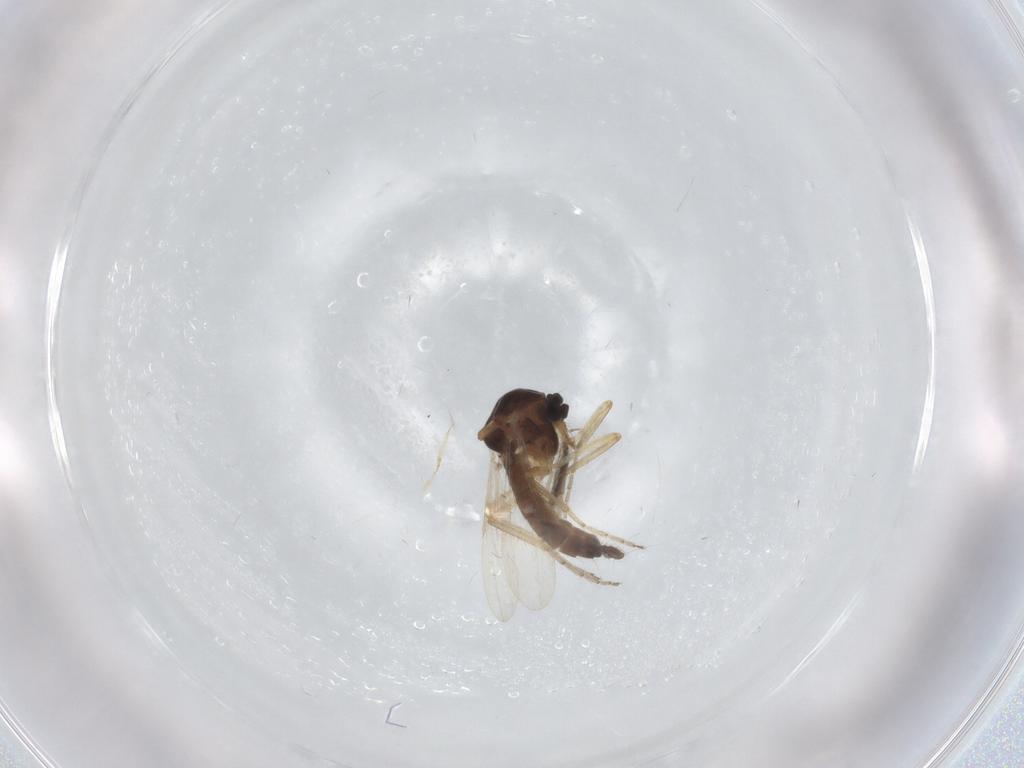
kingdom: Animalia
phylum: Arthropoda
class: Insecta
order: Diptera
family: Ceratopogonidae
